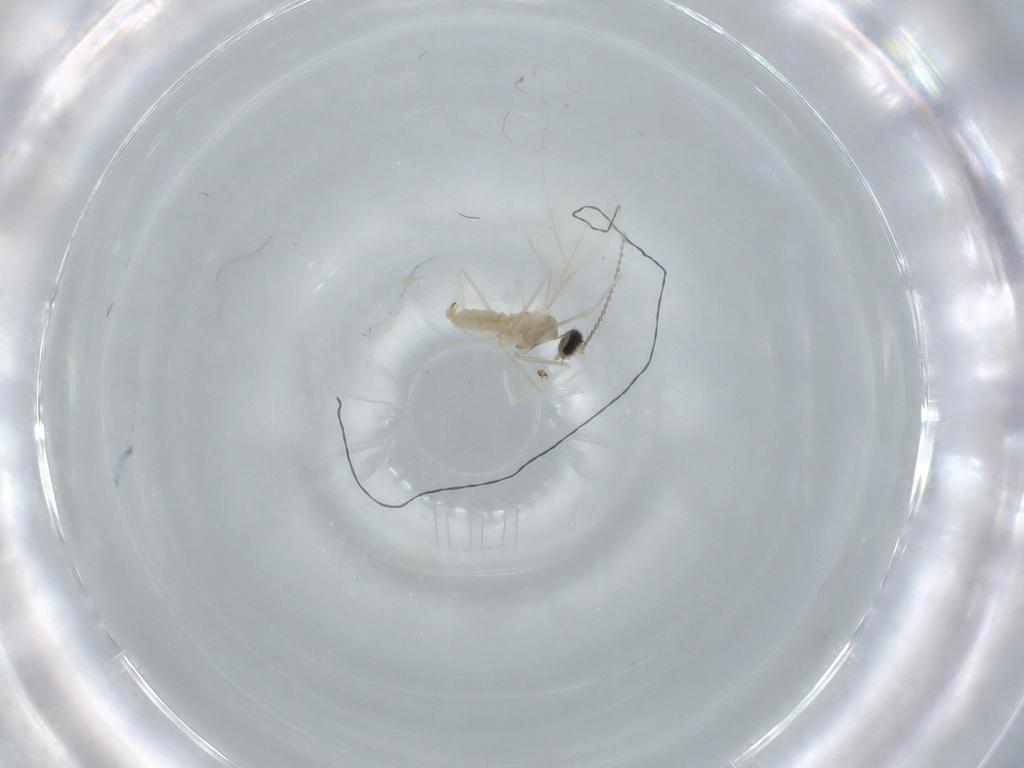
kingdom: Animalia
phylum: Arthropoda
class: Insecta
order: Diptera
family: Cecidomyiidae
